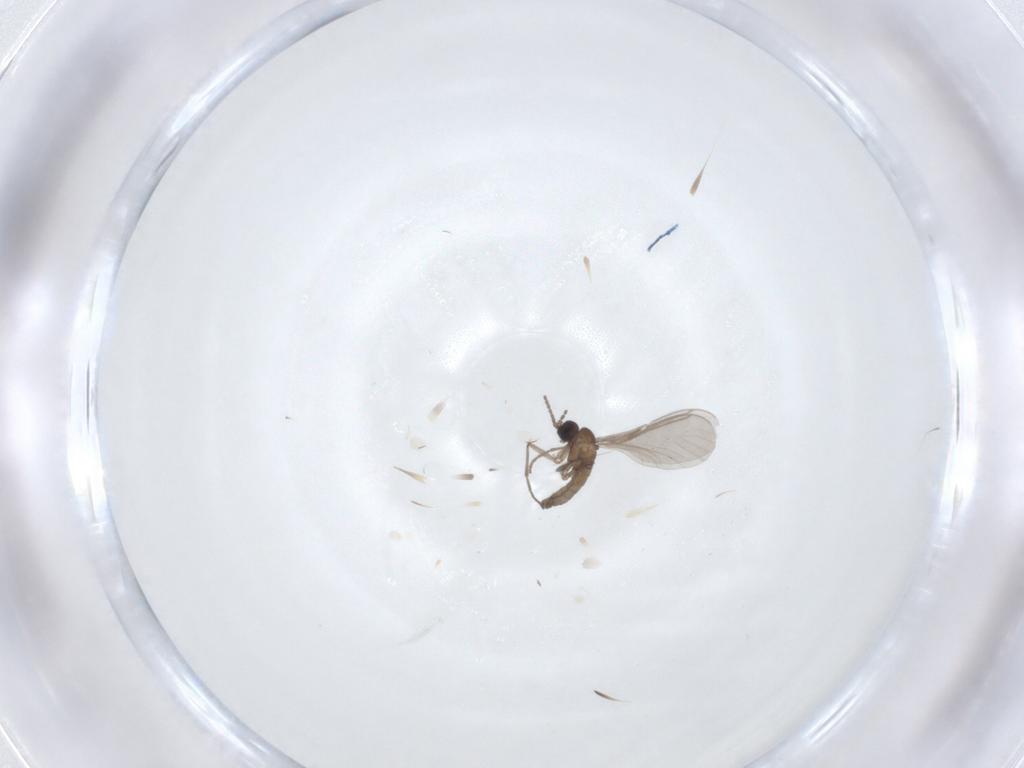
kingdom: Animalia
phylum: Arthropoda
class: Insecta
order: Diptera
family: Sciaridae
